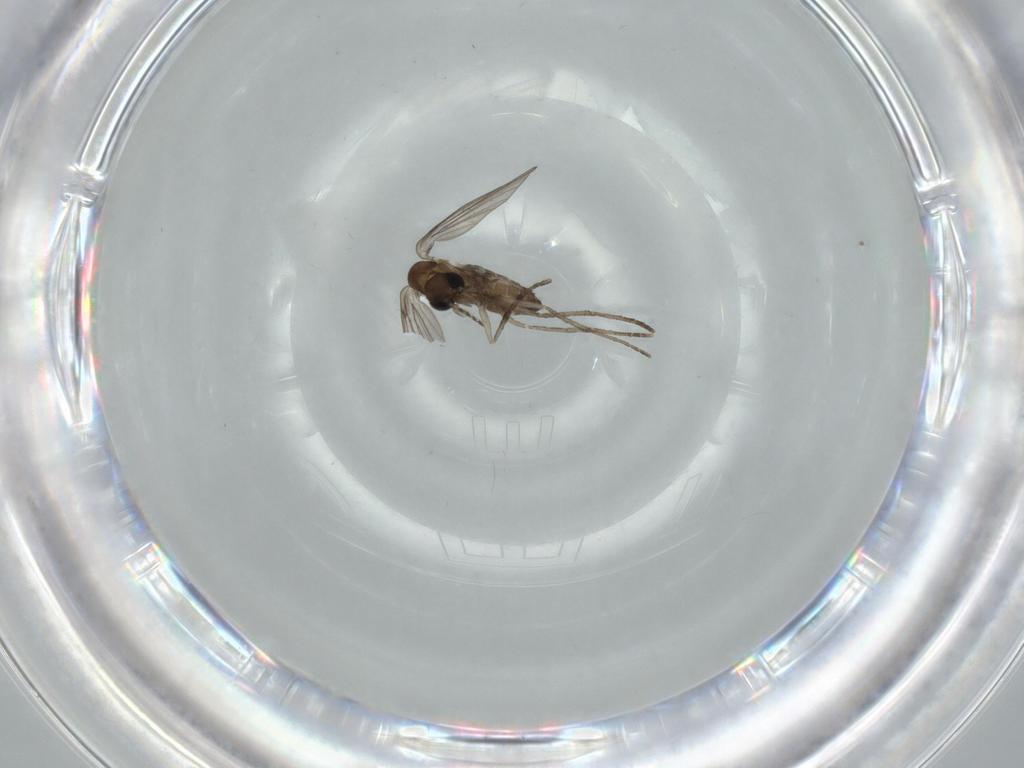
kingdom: Animalia
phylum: Arthropoda
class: Insecta
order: Diptera
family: Psychodidae
